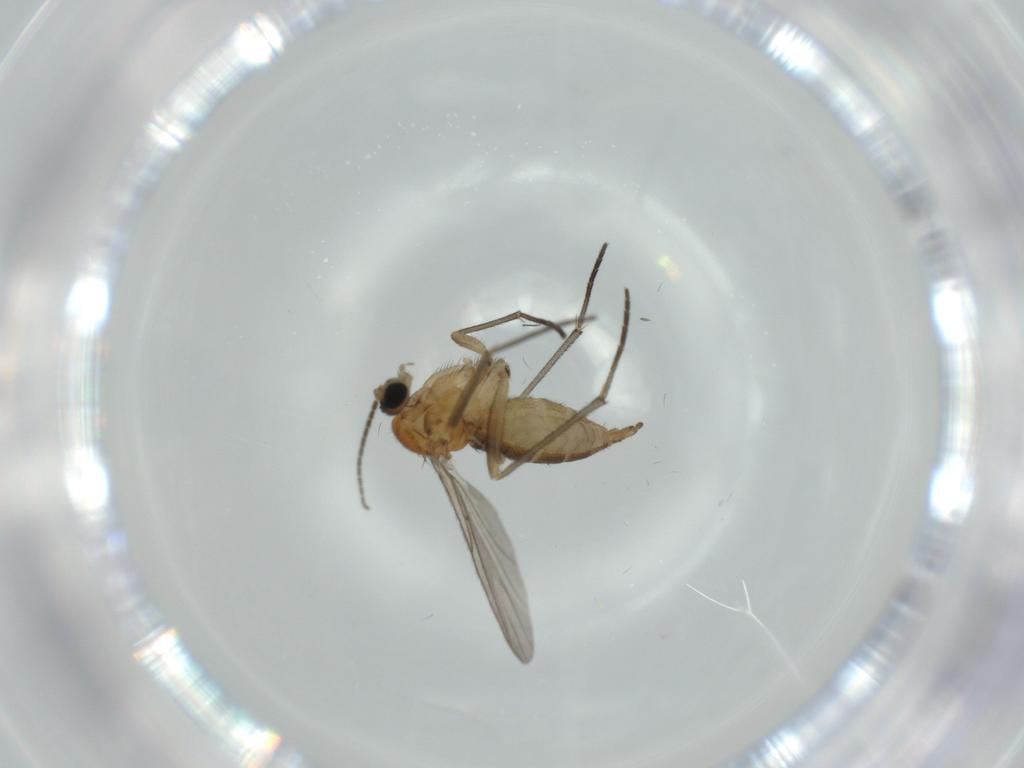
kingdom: Animalia
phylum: Arthropoda
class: Insecta
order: Diptera
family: Sciaridae
